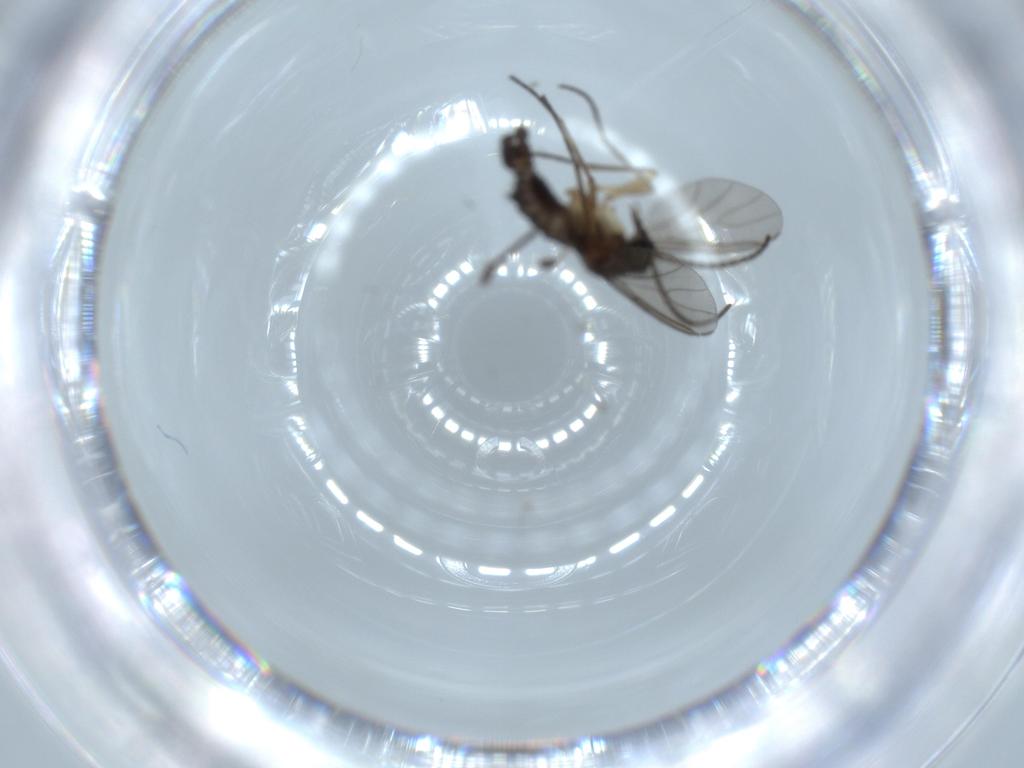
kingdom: Animalia
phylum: Arthropoda
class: Insecta
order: Diptera
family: Sciaridae
